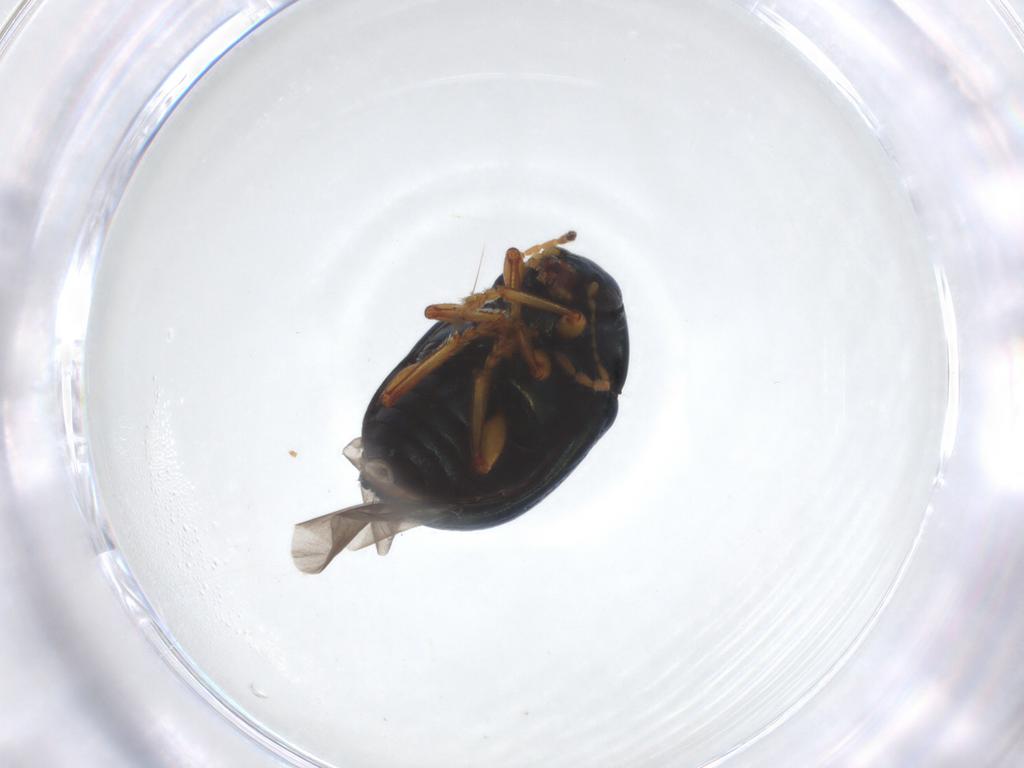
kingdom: Animalia
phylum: Arthropoda
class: Insecta
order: Coleoptera
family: Chrysomelidae
